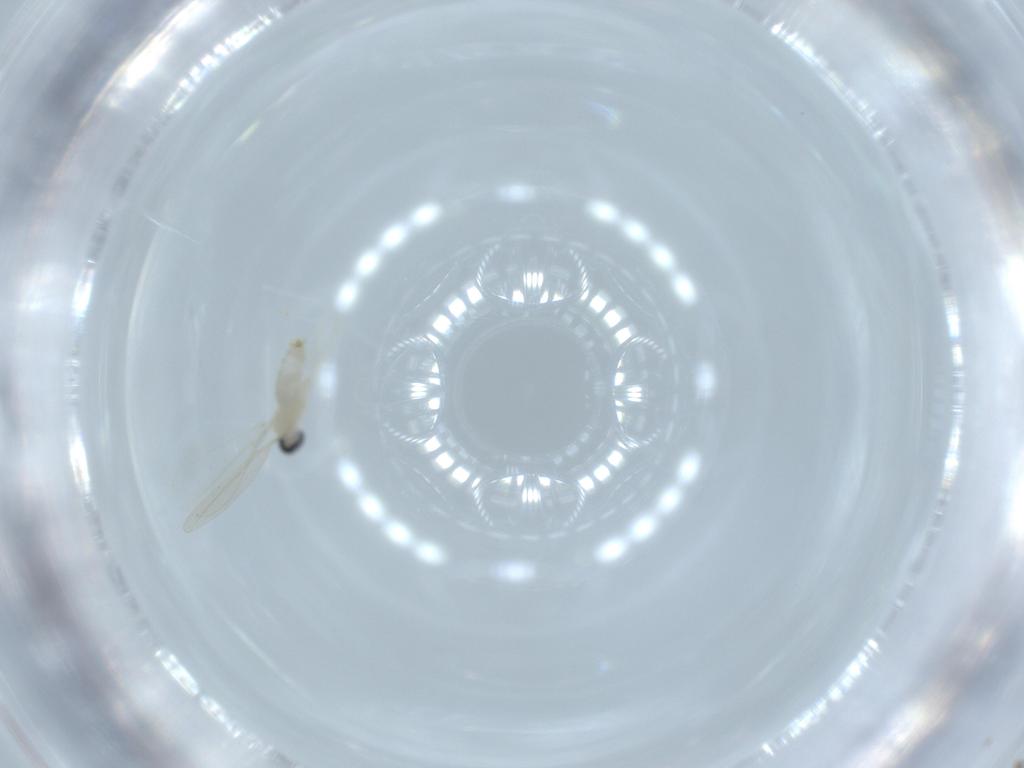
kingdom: Animalia
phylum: Arthropoda
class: Insecta
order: Diptera
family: Cecidomyiidae
